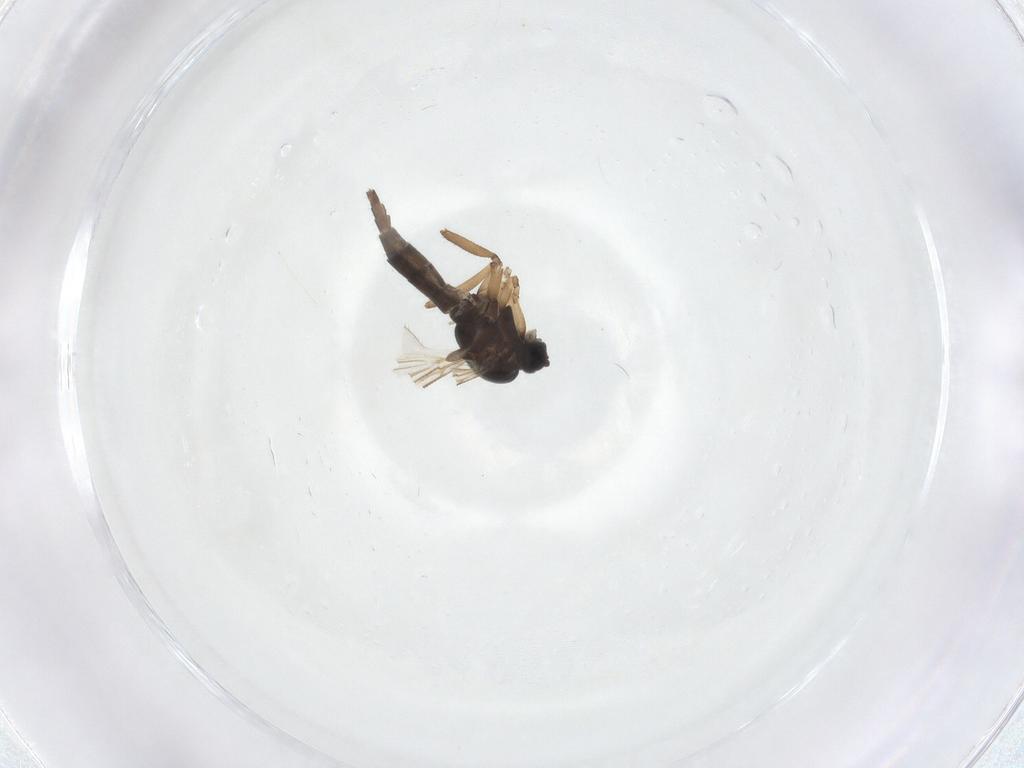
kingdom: Animalia
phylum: Arthropoda
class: Insecta
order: Diptera
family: Sciaridae
